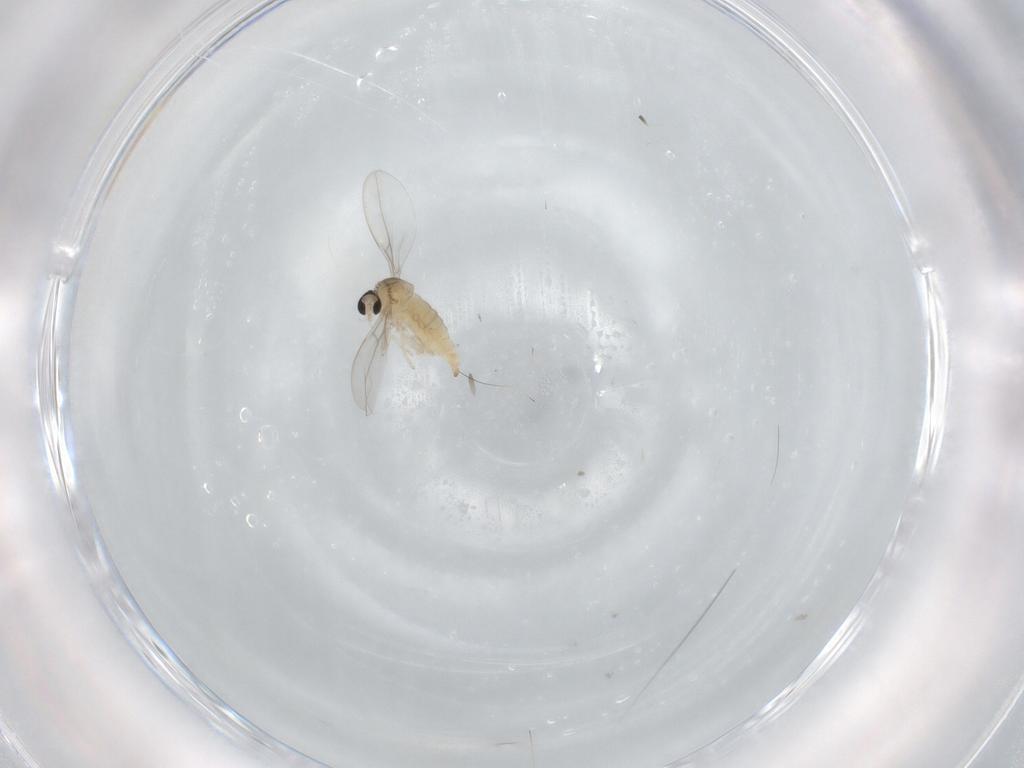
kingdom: Animalia
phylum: Arthropoda
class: Insecta
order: Diptera
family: Cecidomyiidae
